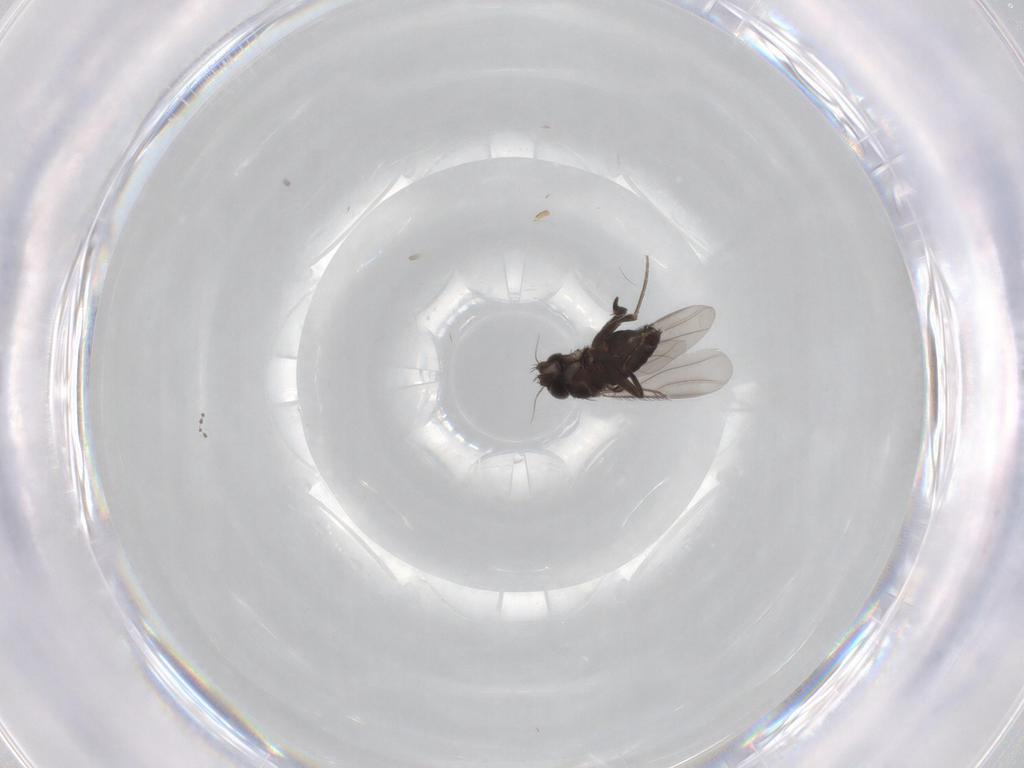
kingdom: Animalia
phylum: Arthropoda
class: Insecta
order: Diptera
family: Phoridae
